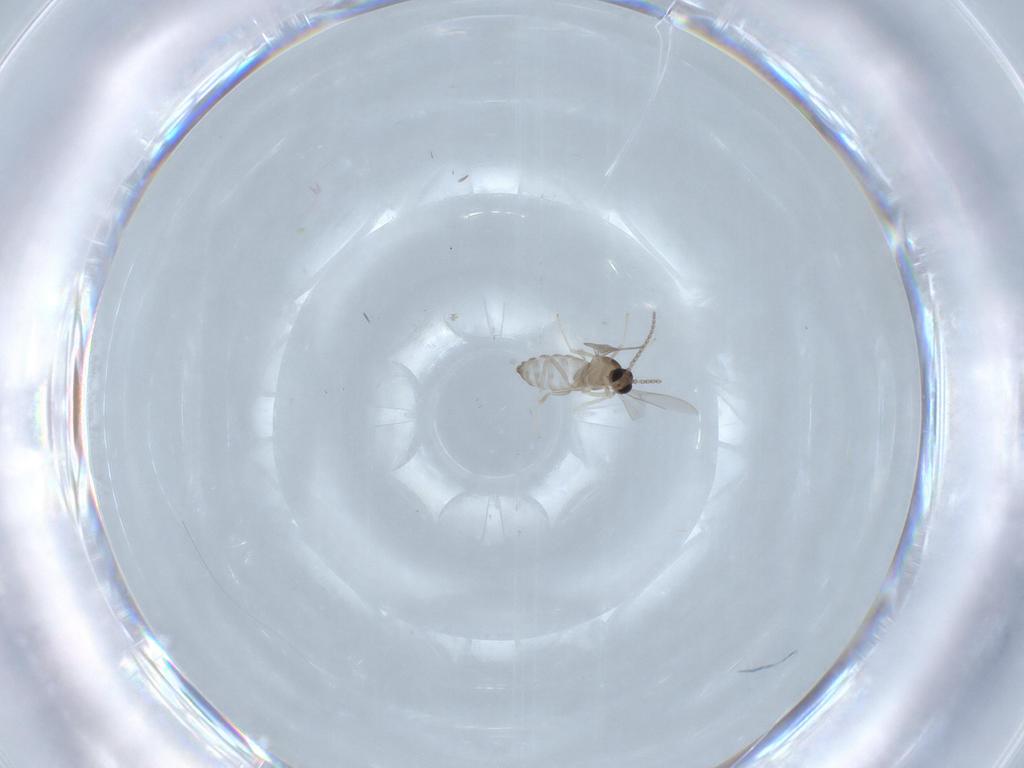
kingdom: Animalia
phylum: Arthropoda
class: Insecta
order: Diptera
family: Cecidomyiidae
